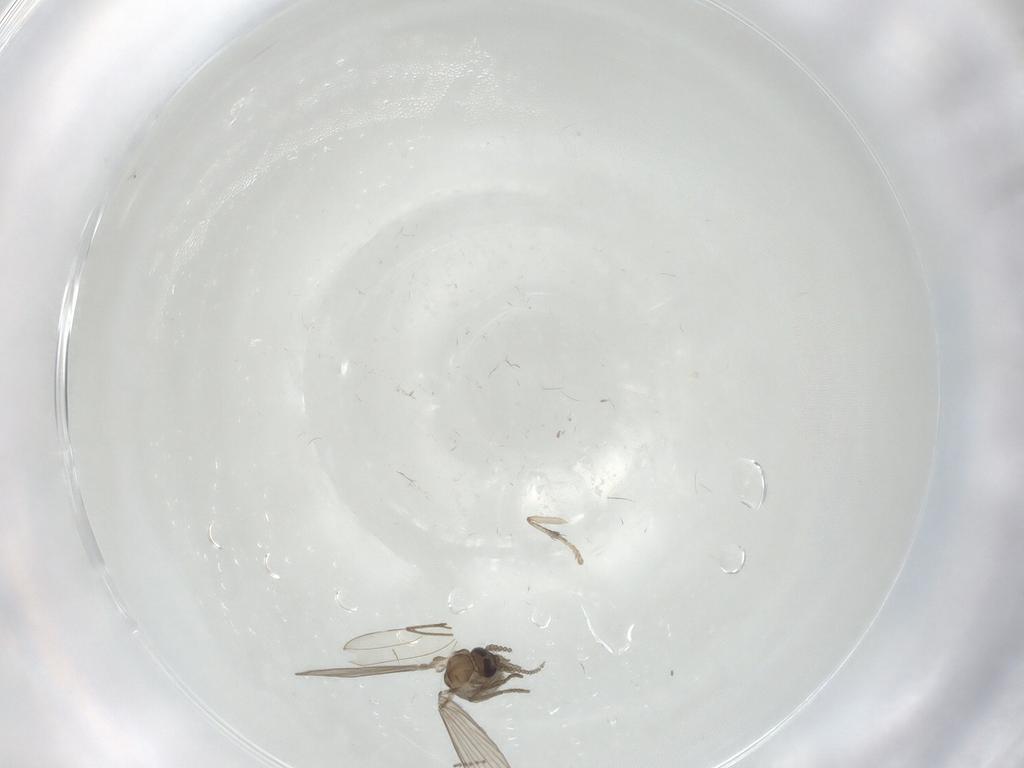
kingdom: Animalia
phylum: Arthropoda
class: Insecta
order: Diptera
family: Psychodidae
